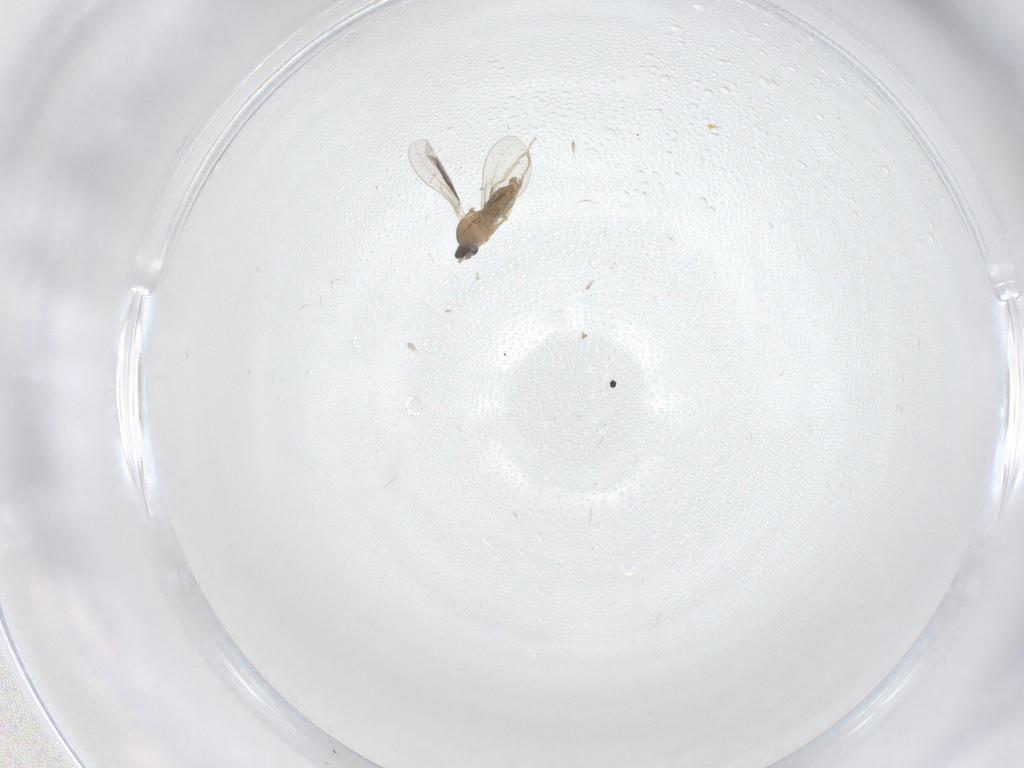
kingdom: Animalia
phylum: Arthropoda
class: Insecta
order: Diptera
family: Cecidomyiidae
